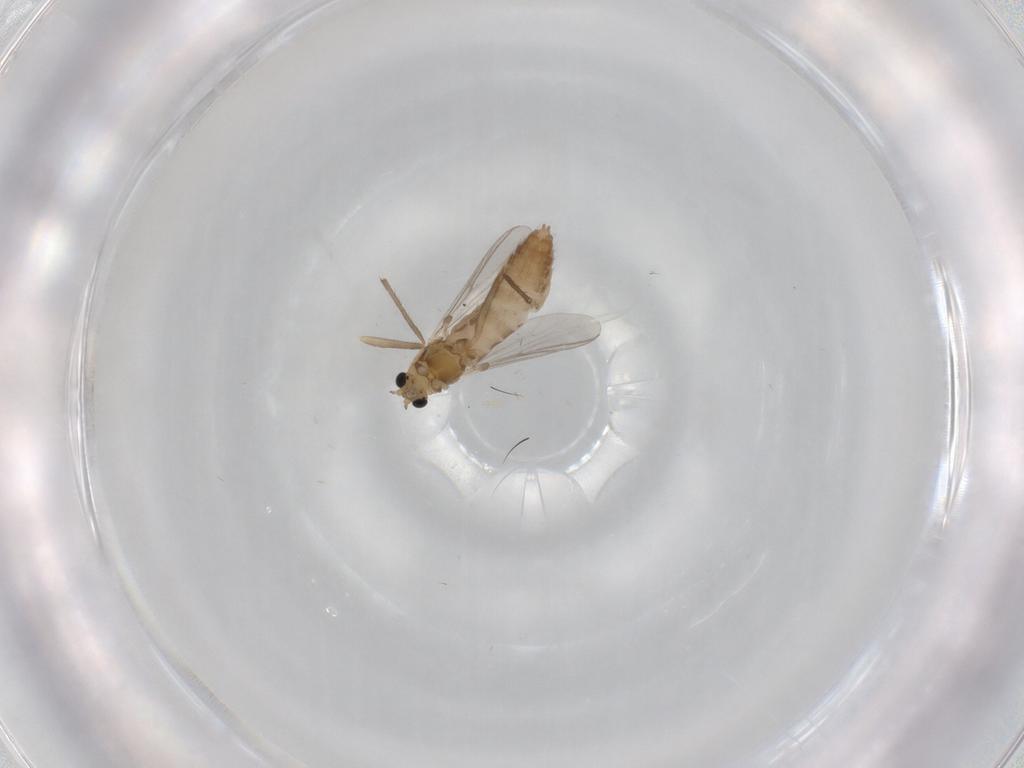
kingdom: Animalia
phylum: Arthropoda
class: Insecta
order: Diptera
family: Chironomidae
